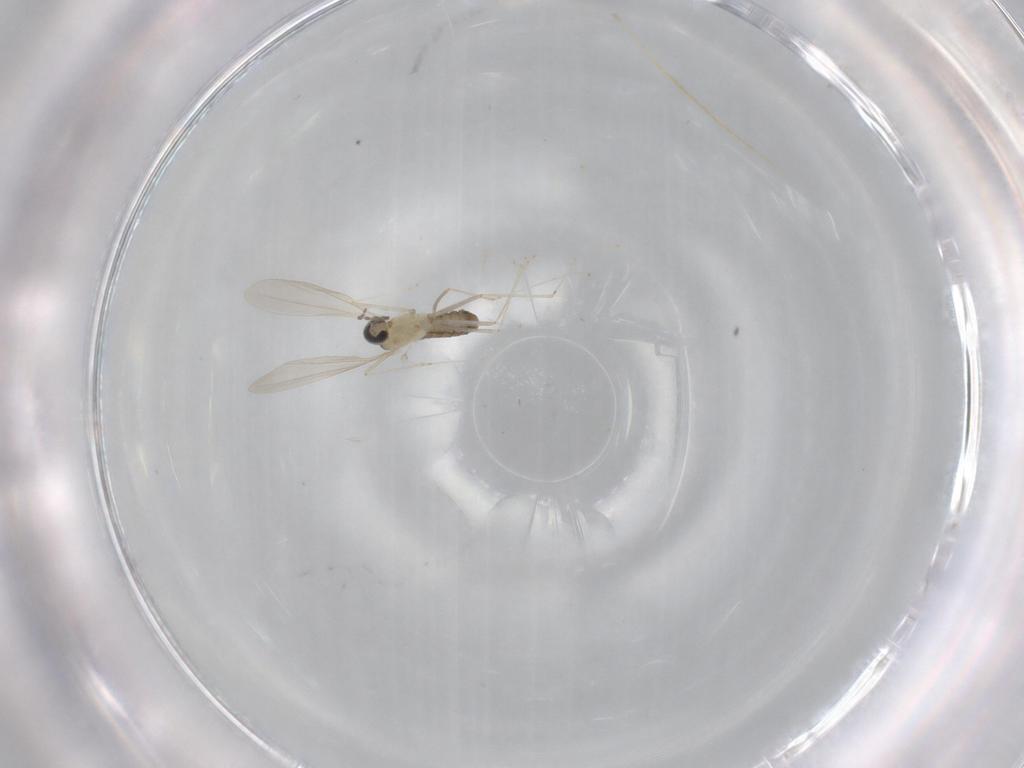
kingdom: Animalia
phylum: Arthropoda
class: Insecta
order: Diptera
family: Cecidomyiidae
